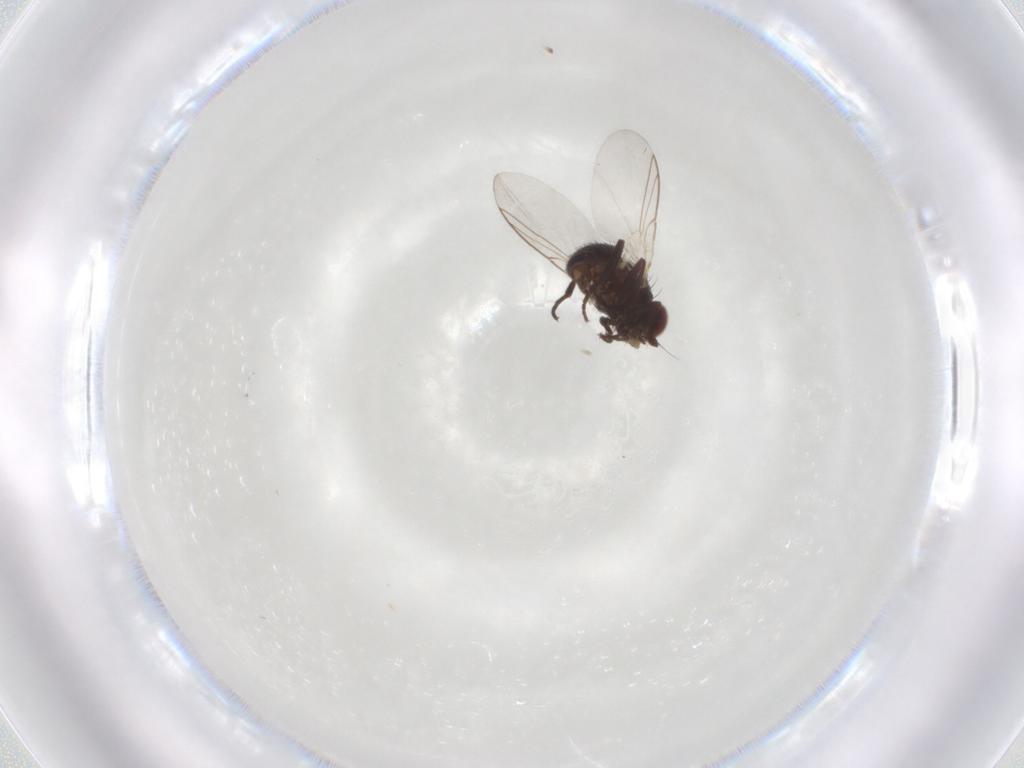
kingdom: Animalia
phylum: Arthropoda
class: Insecta
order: Diptera
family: Muscidae
